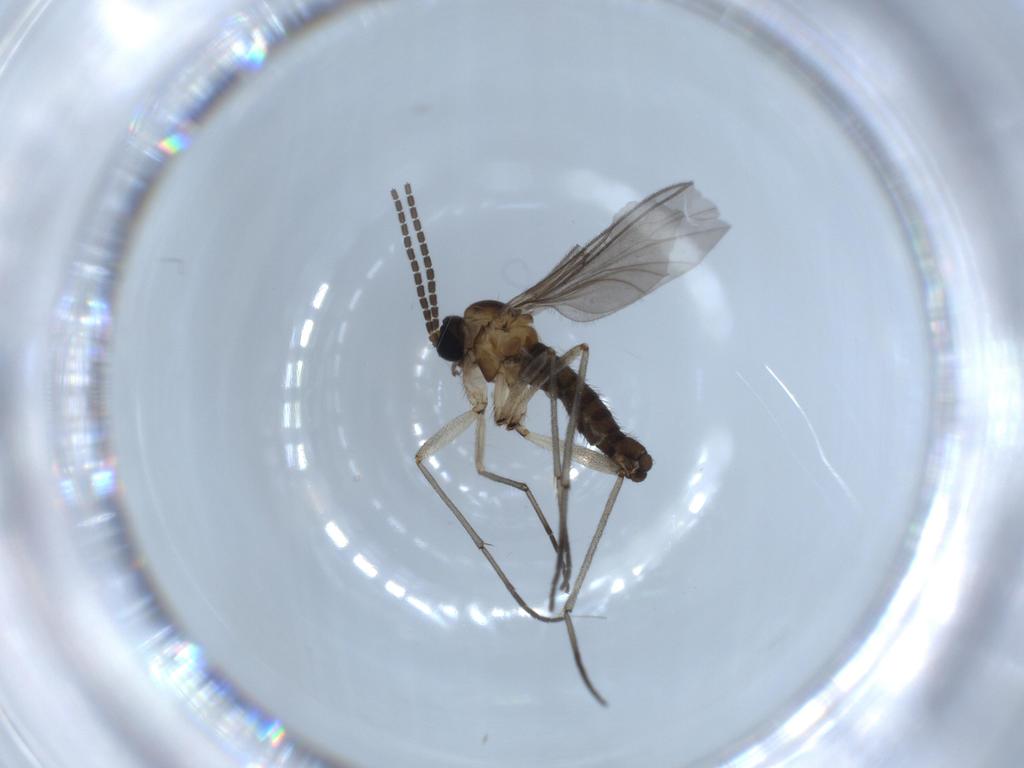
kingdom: Animalia
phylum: Arthropoda
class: Insecta
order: Diptera
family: Sciaridae
